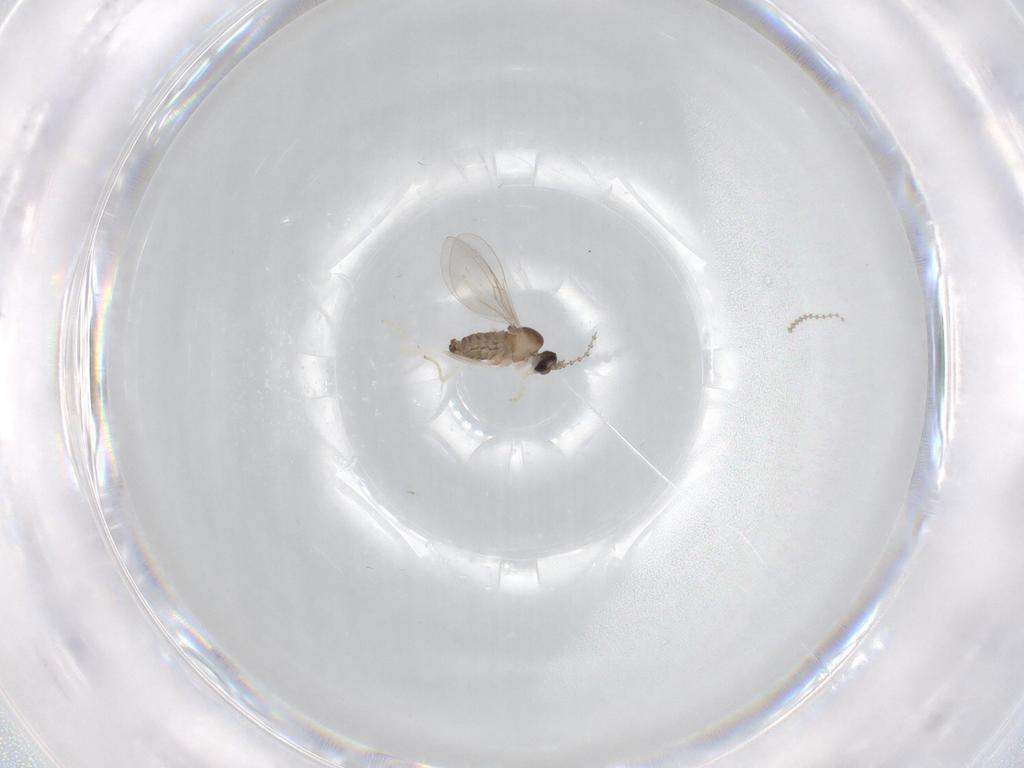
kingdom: Animalia
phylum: Arthropoda
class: Insecta
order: Diptera
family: Cecidomyiidae
